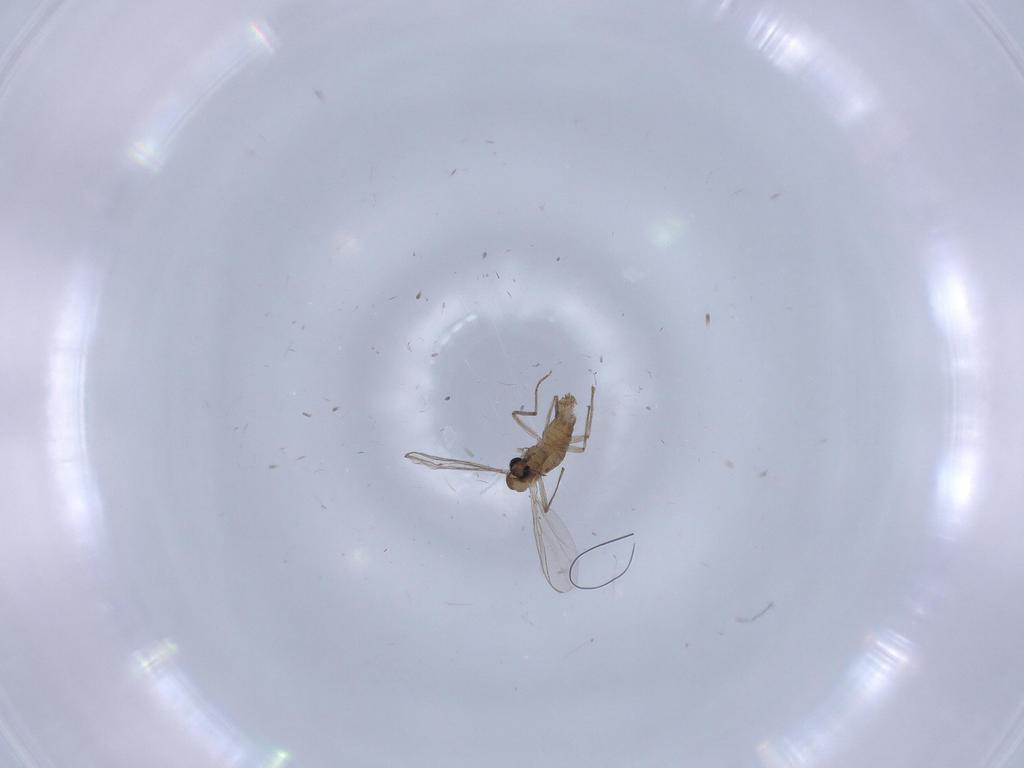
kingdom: Animalia
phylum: Arthropoda
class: Insecta
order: Diptera
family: Chironomidae
